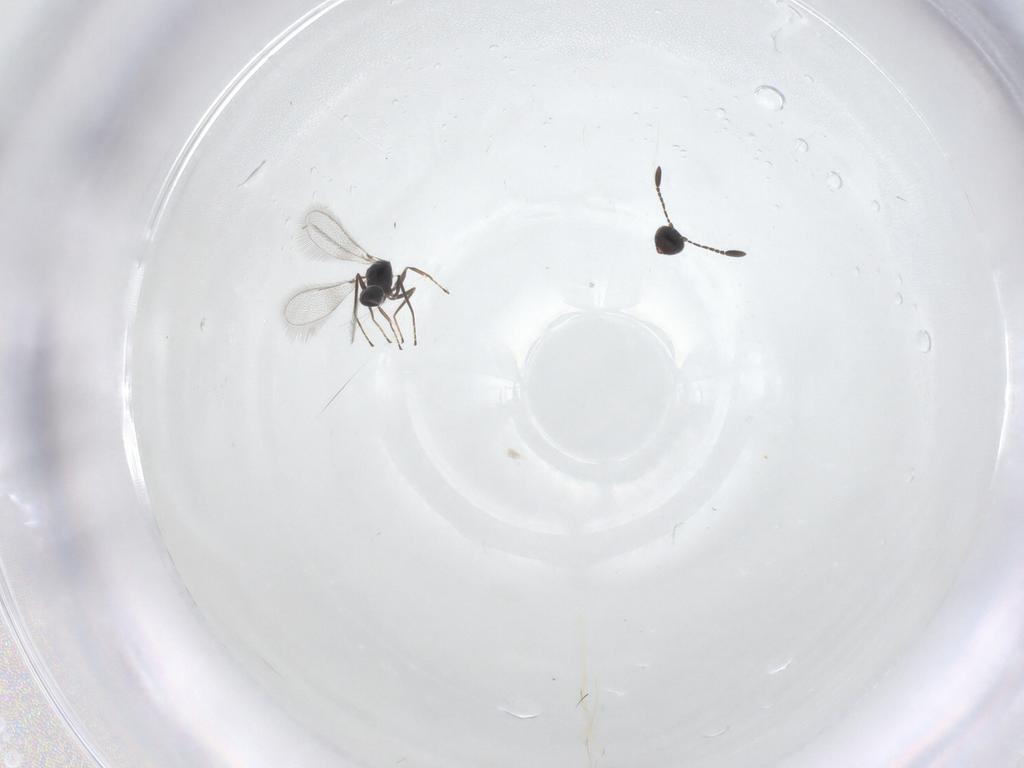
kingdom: Animalia
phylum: Arthropoda
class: Insecta
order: Hymenoptera
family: Mymaridae
